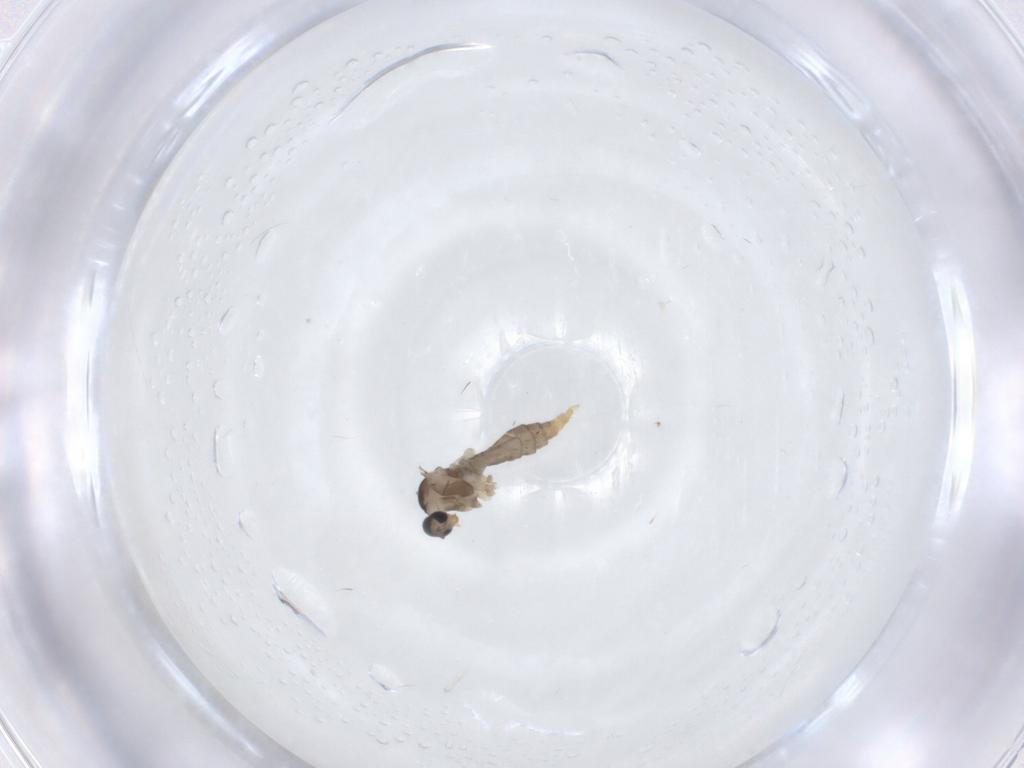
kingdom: Animalia
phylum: Arthropoda
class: Insecta
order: Diptera
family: Cecidomyiidae
